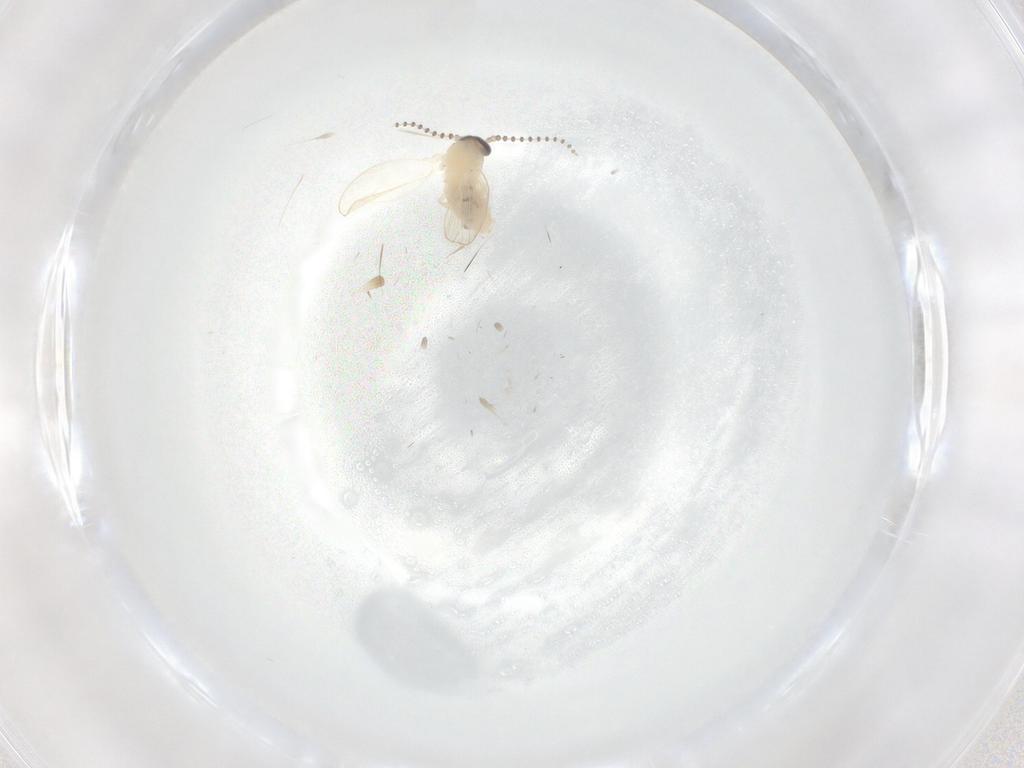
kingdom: Animalia
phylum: Arthropoda
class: Insecta
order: Diptera
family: Psychodidae
